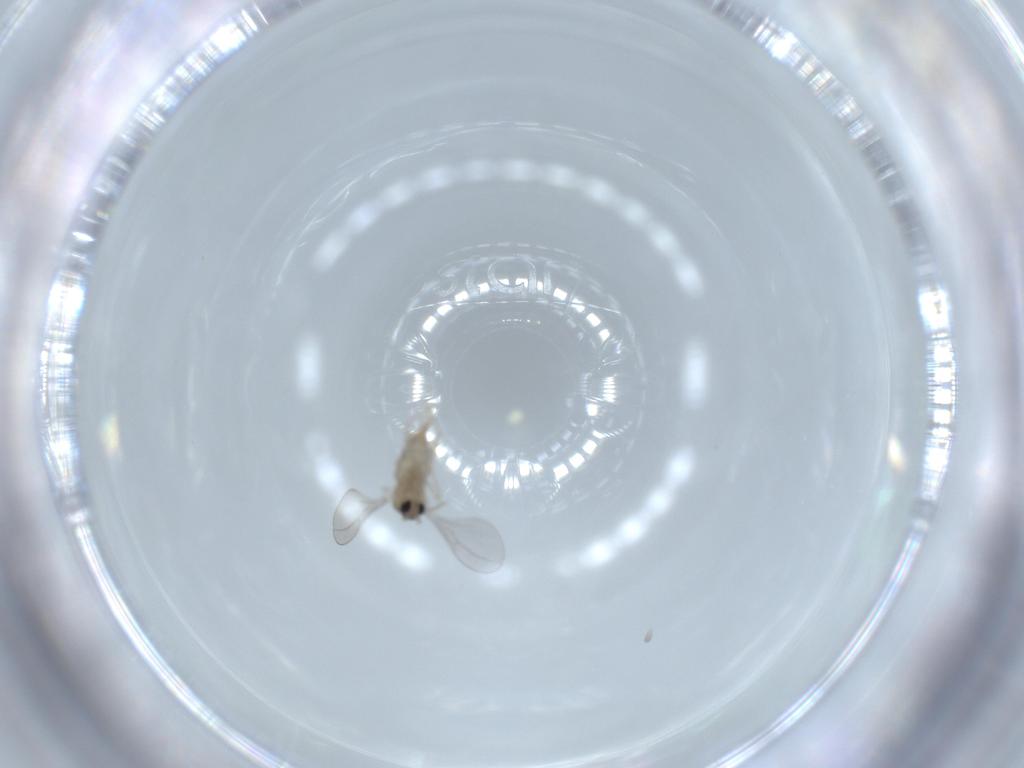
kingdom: Animalia
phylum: Arthropoda
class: Insecta
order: Diptera
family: Cecidomyiidae
